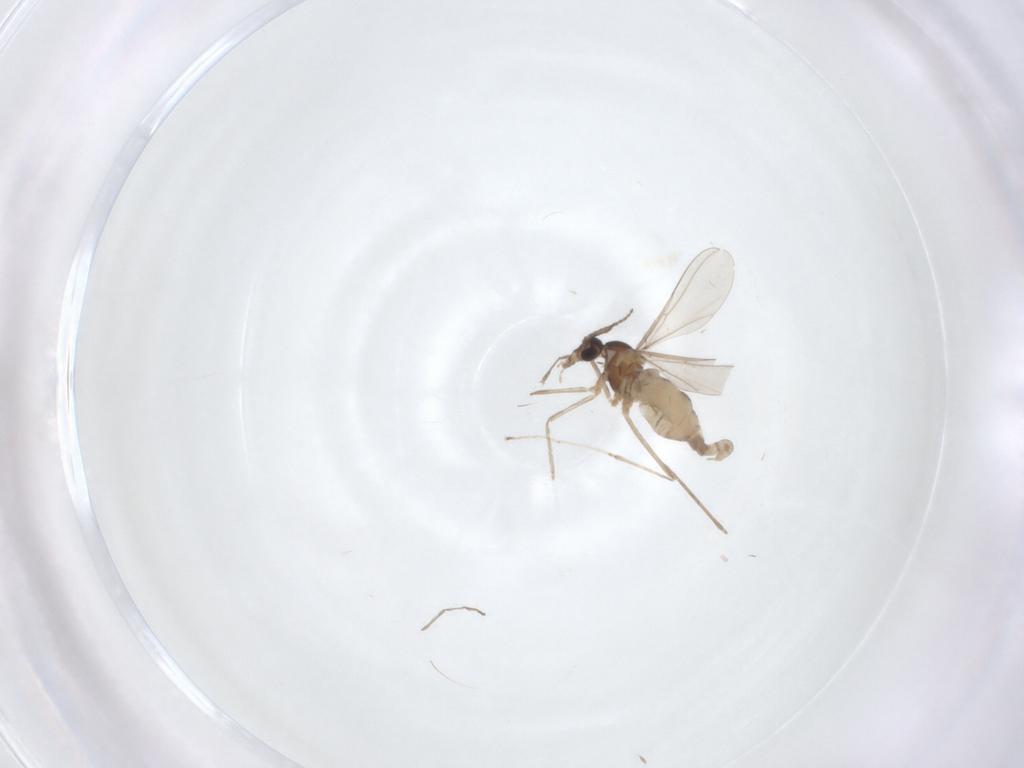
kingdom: Animalia
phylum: Arthropoda
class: Insecta
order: Diptera
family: Cecidomyiidae
